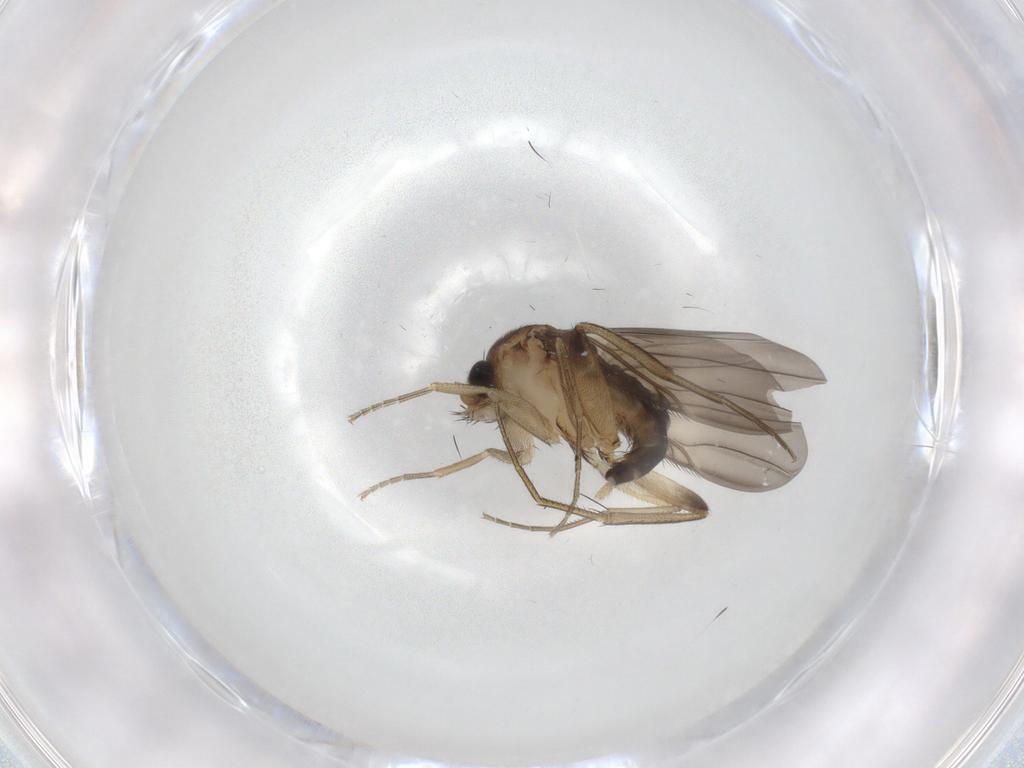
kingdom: Animalia
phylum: Arthropoda
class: Insecta
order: Diptera
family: Phoridae
